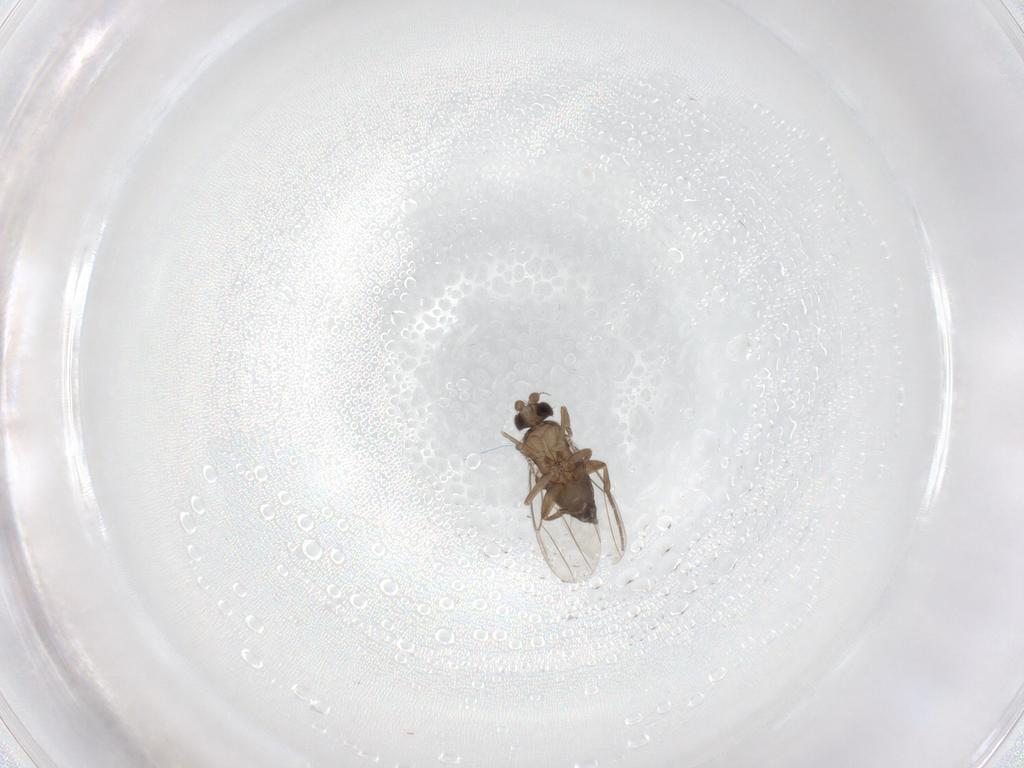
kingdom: Animalia
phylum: Arthropoda
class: Insecta
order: Diptera
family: Phoridae
